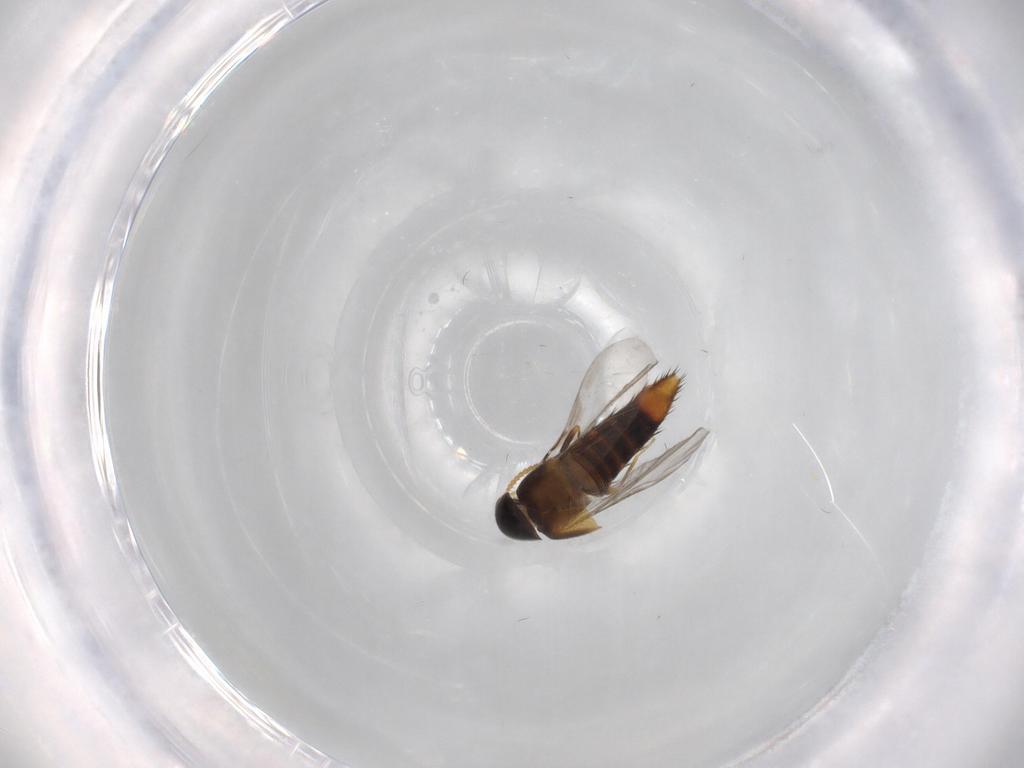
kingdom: Animalia
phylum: Arthropoda
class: Insecta
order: Coleoptera
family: Staphylinidae
